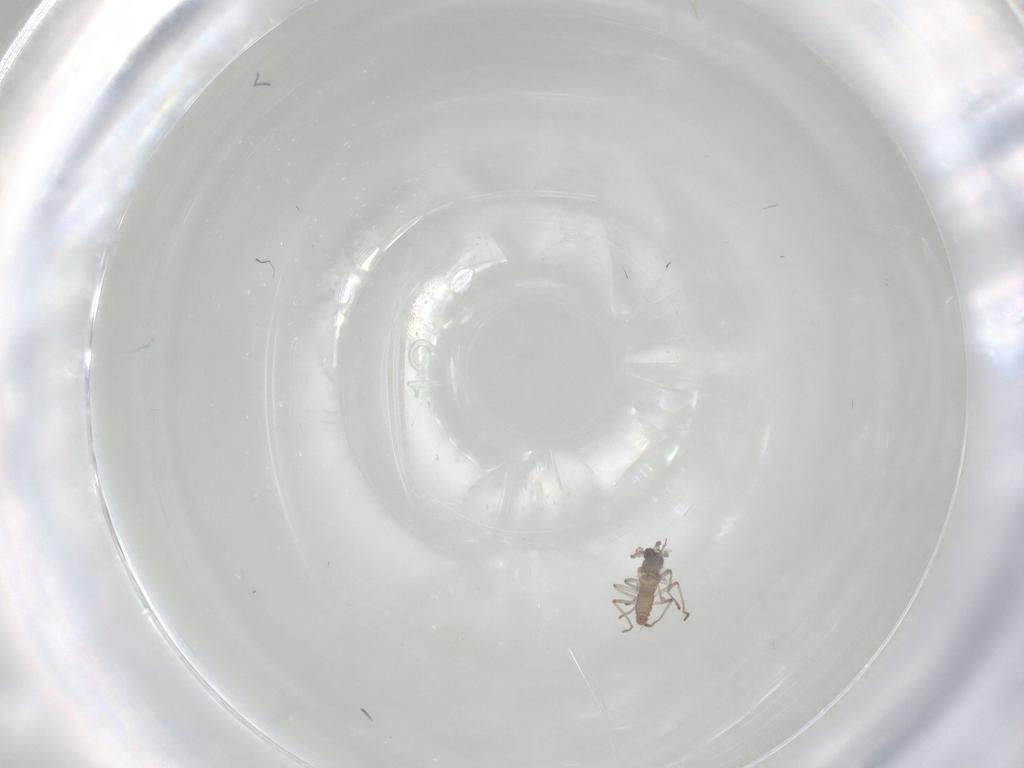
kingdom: Animalia
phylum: Arthropoda
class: Insecta
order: Diptera
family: Cecidomyiidae
